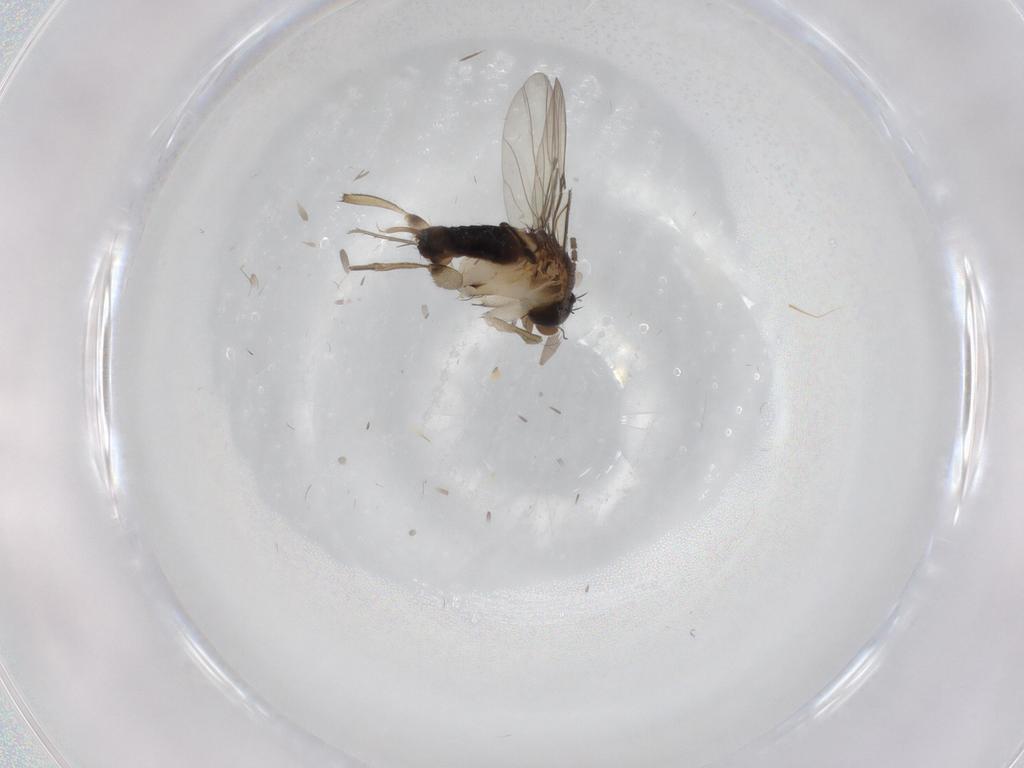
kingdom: Animalia
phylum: Arthropoda
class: Insecta
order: Diptera
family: Phoridae
